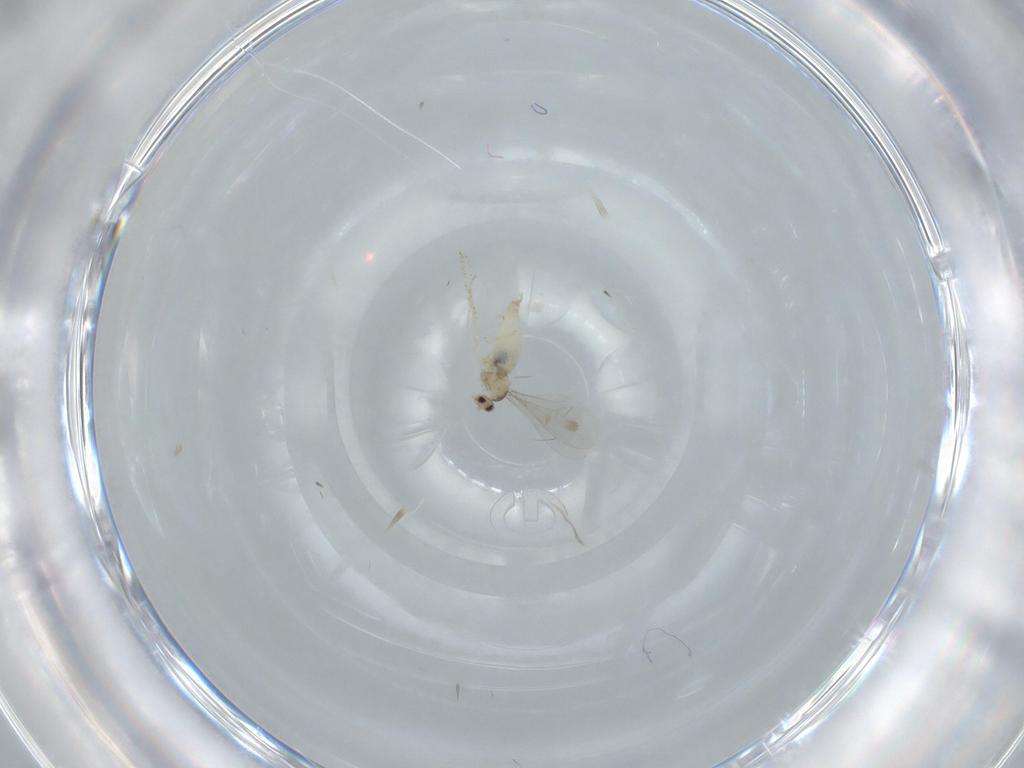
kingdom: Animalia
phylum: Arthropoda
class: Insecta
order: Diptera
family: Cecidomyiidae
